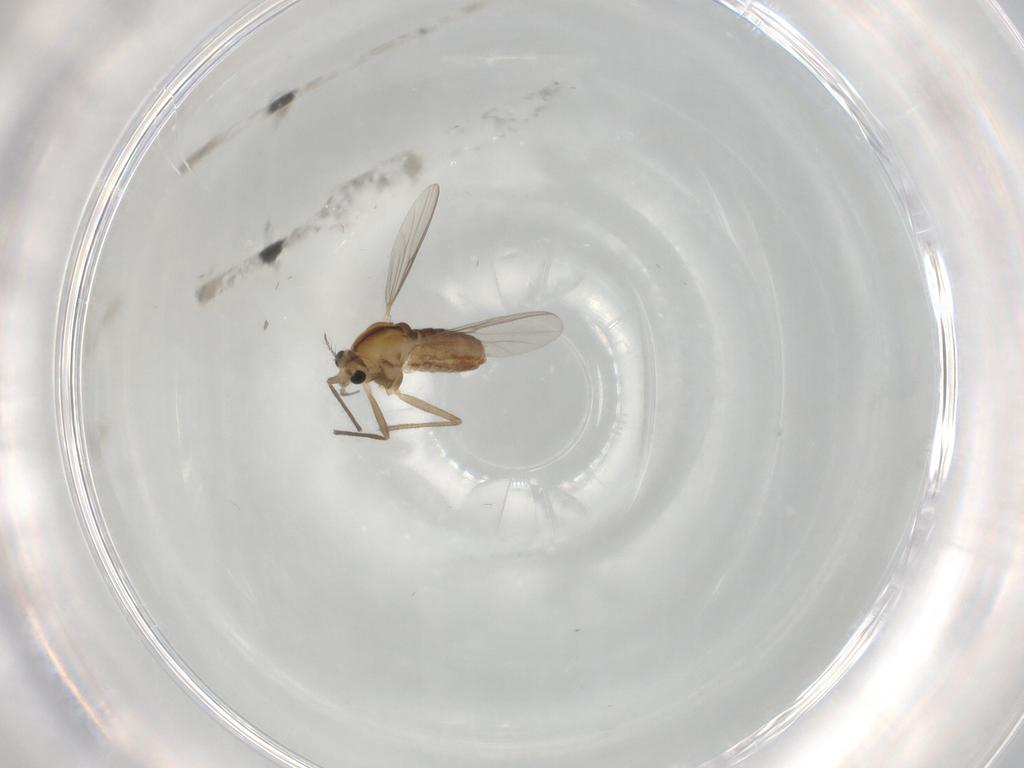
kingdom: Animalia
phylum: Arthropoda
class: Insecta
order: Diptera
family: Chironomidae
